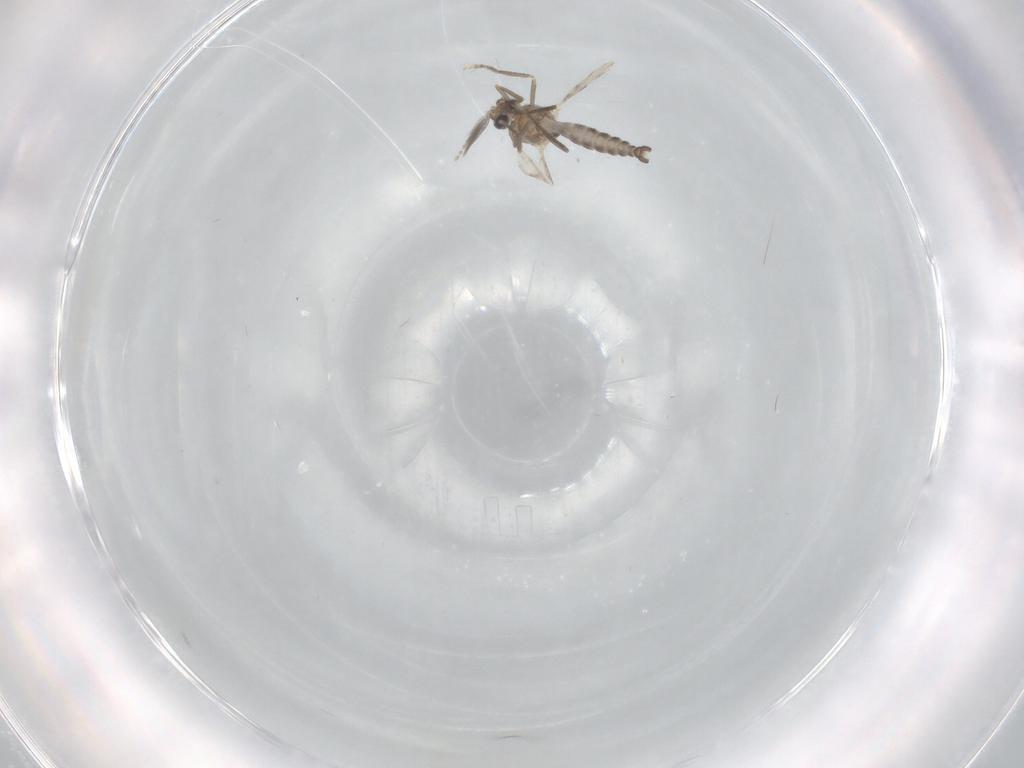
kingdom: Animalia
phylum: Arthropoda
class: Insecta
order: Diptera
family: Ceratopogonidae
